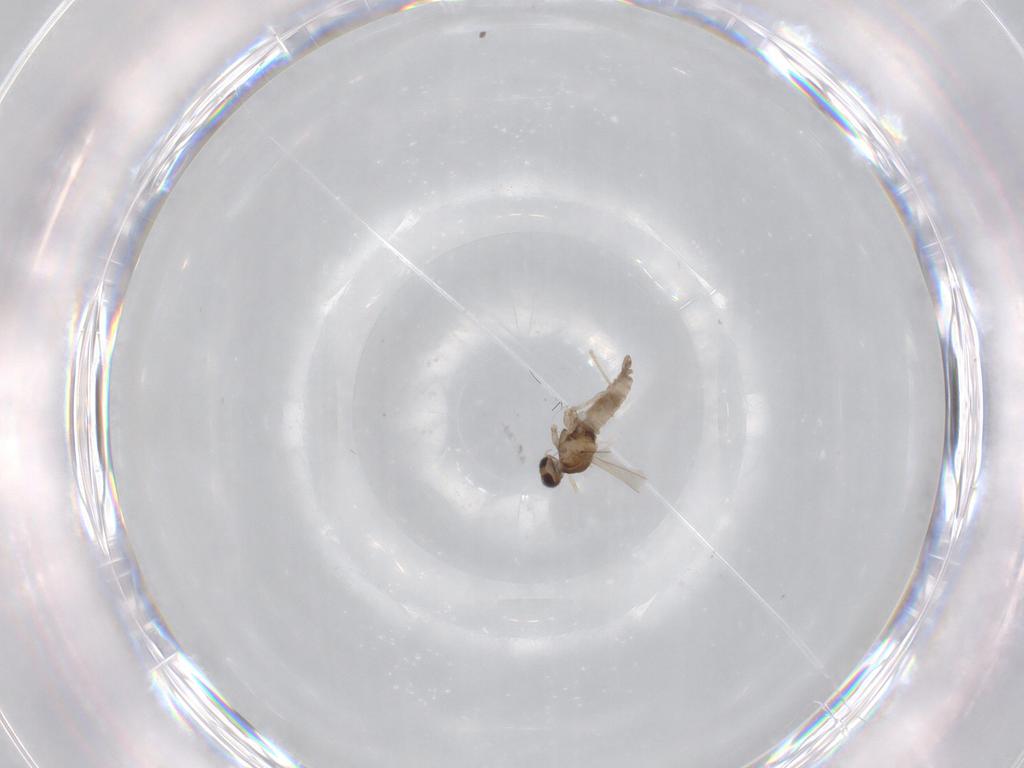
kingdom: Animalia
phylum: Arthropoda
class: Insecta
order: Diptera
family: Cecidomyiidae
